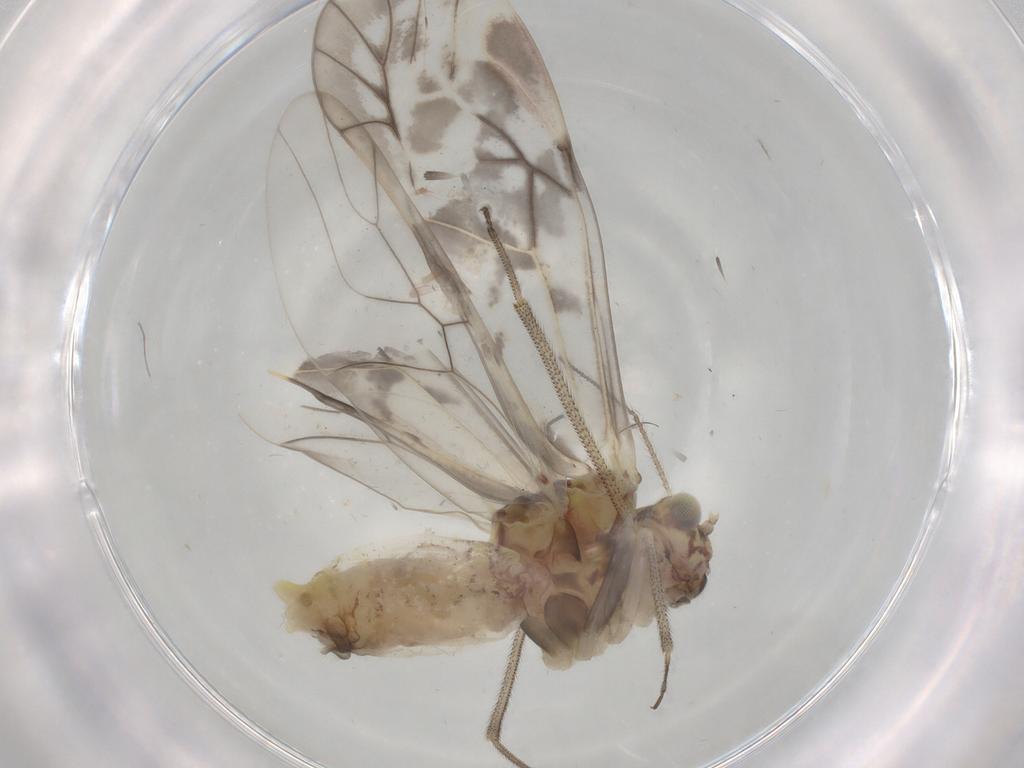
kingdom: Animalia
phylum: Arthropoda
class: Insecta
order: Psocodea
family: Psocidae
